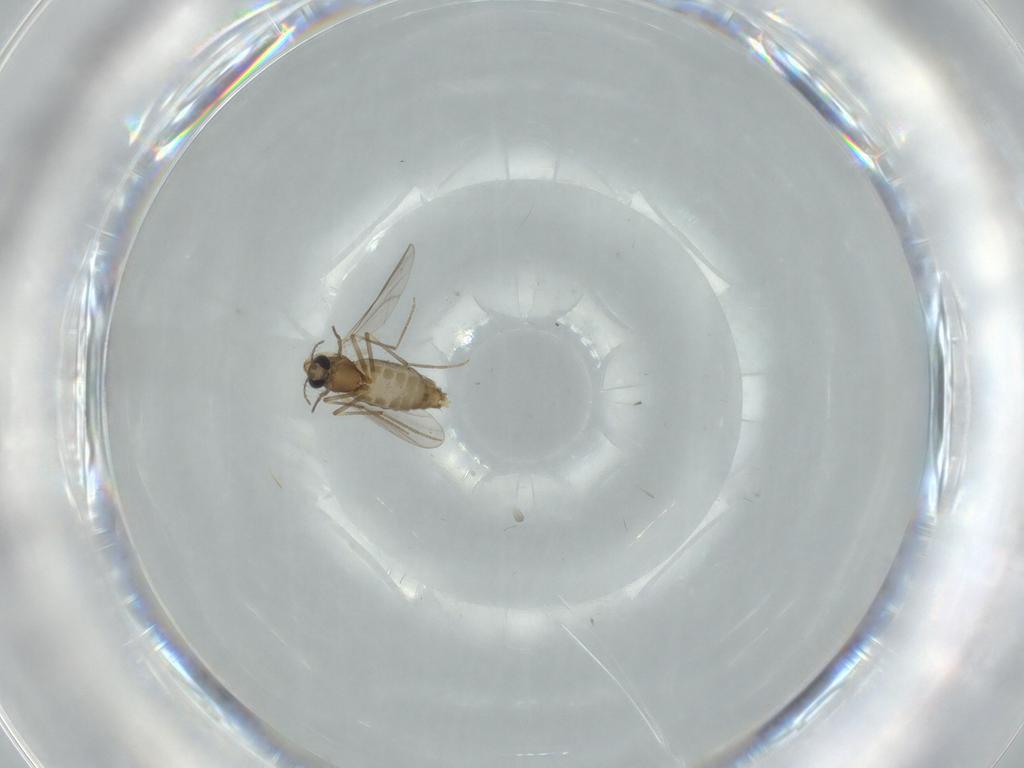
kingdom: Animalia
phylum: Arthropoda
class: Insecta
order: Diptera
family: Chironomidae
